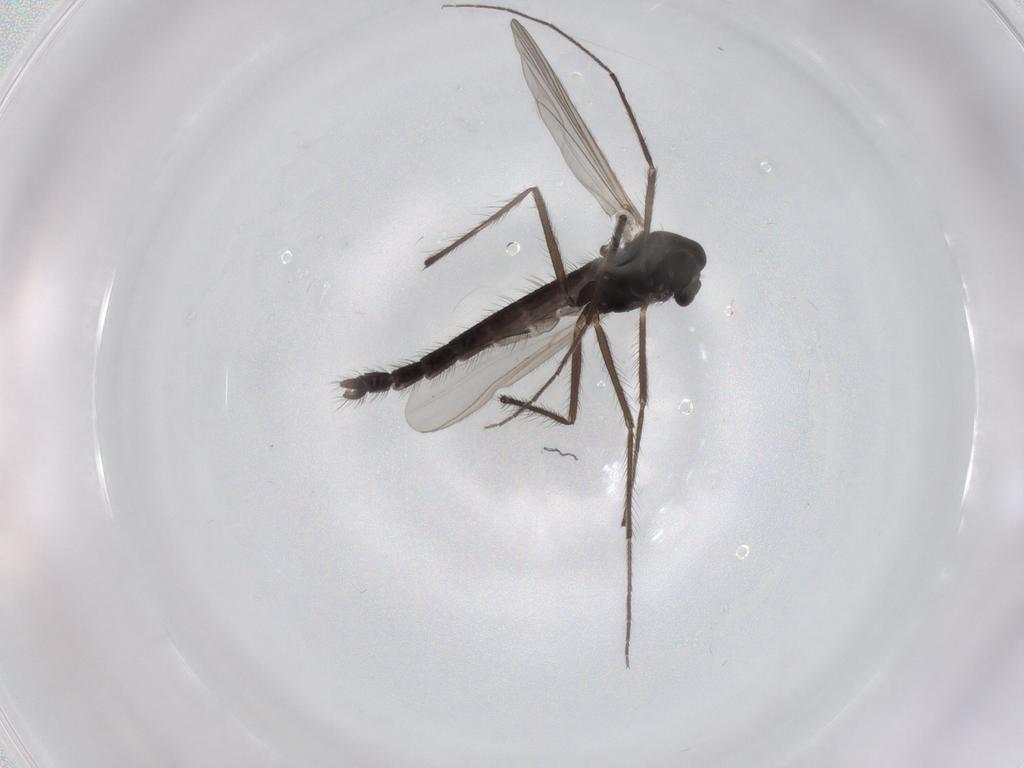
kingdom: Animalia
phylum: Arthropoda
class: Insecta
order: Diptera
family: Chironomidae
